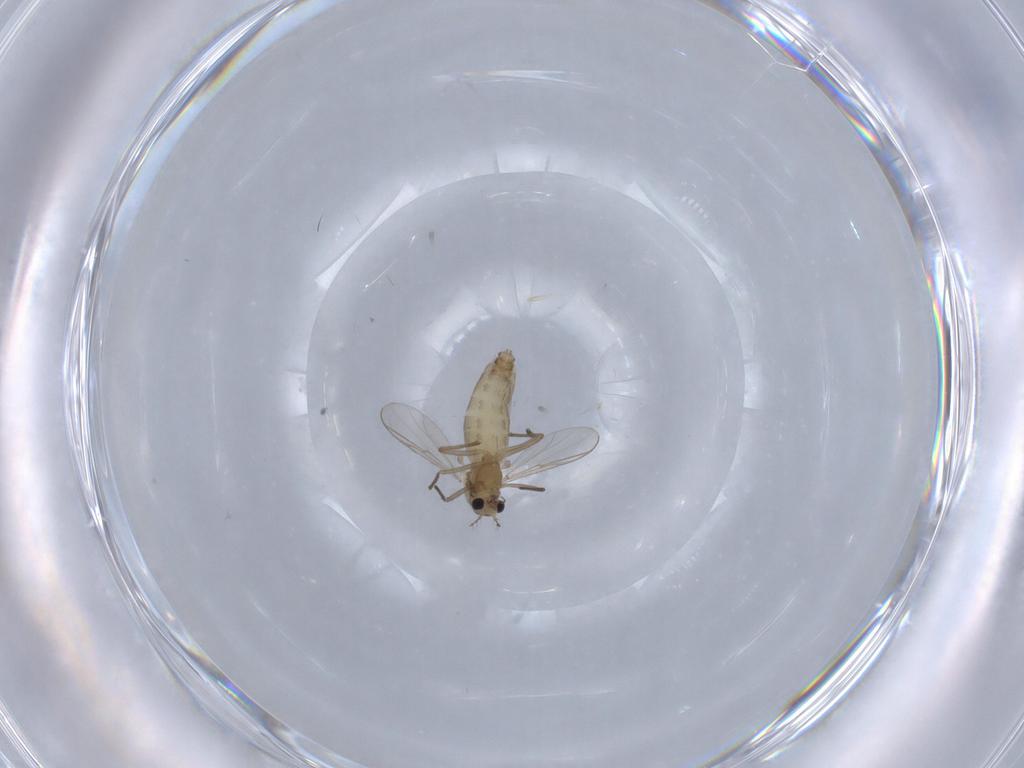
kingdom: Animalia
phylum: Arthropoda
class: Insecta
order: Diptera
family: Chironomidae
